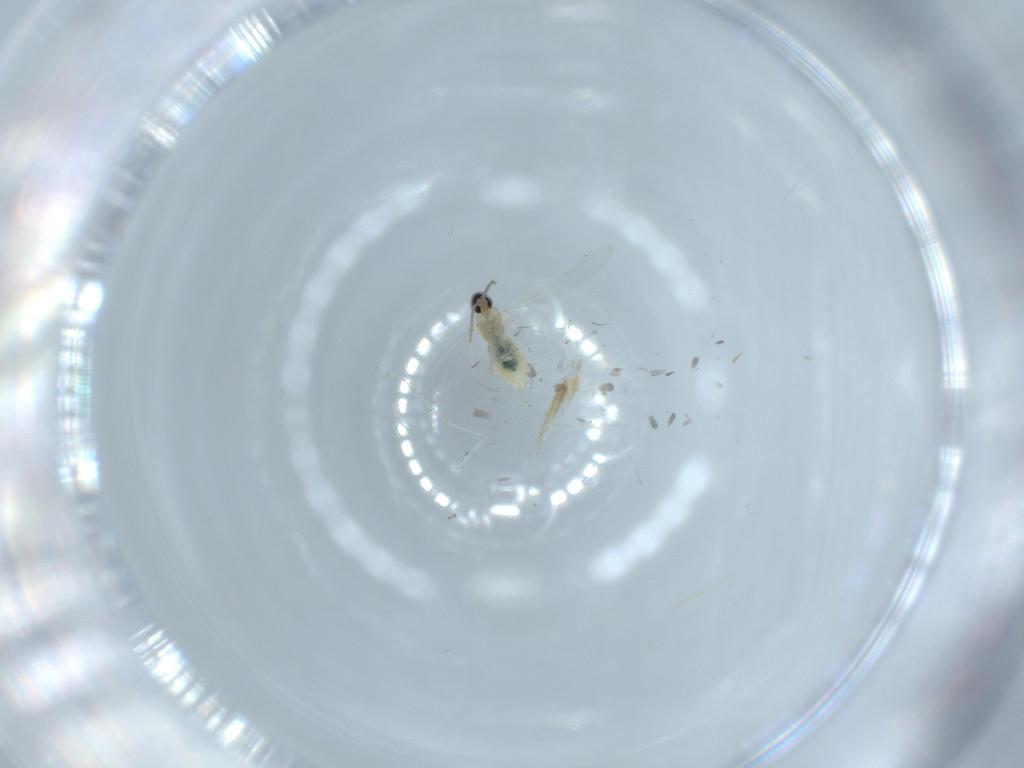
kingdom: Animalia
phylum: Arthropoda
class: Insecta
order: Diptera
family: Cecidomyiidae
